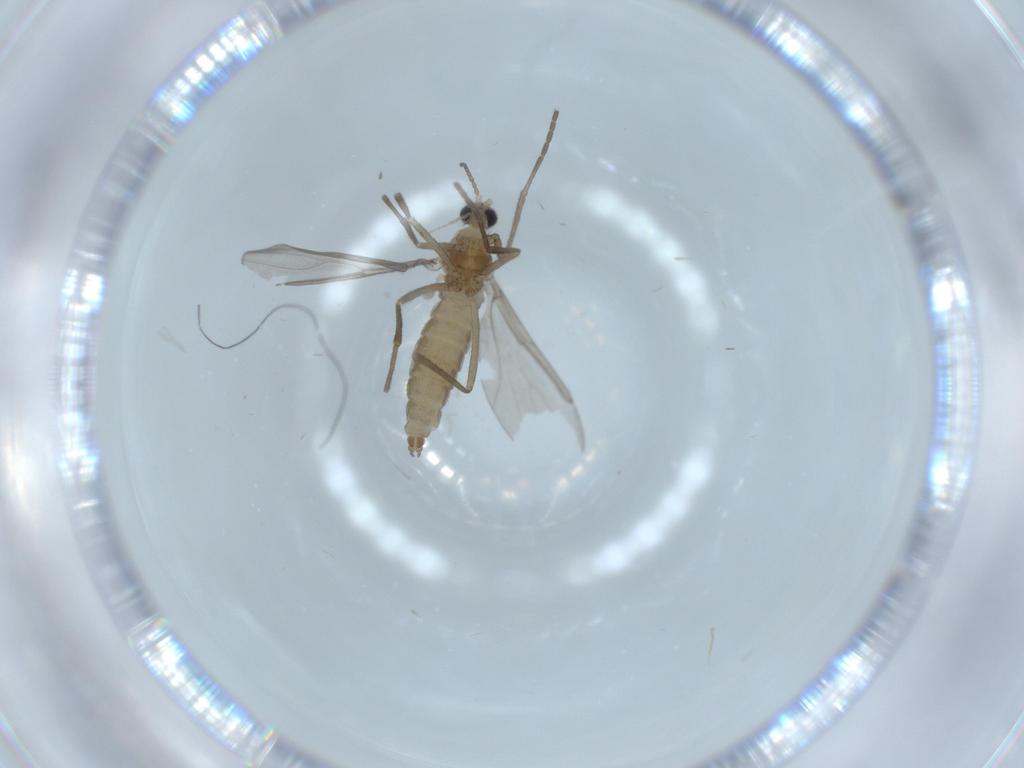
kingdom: Animalia
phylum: Arthropoda
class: Insecta
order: Diptera
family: Cecidomyiidae
